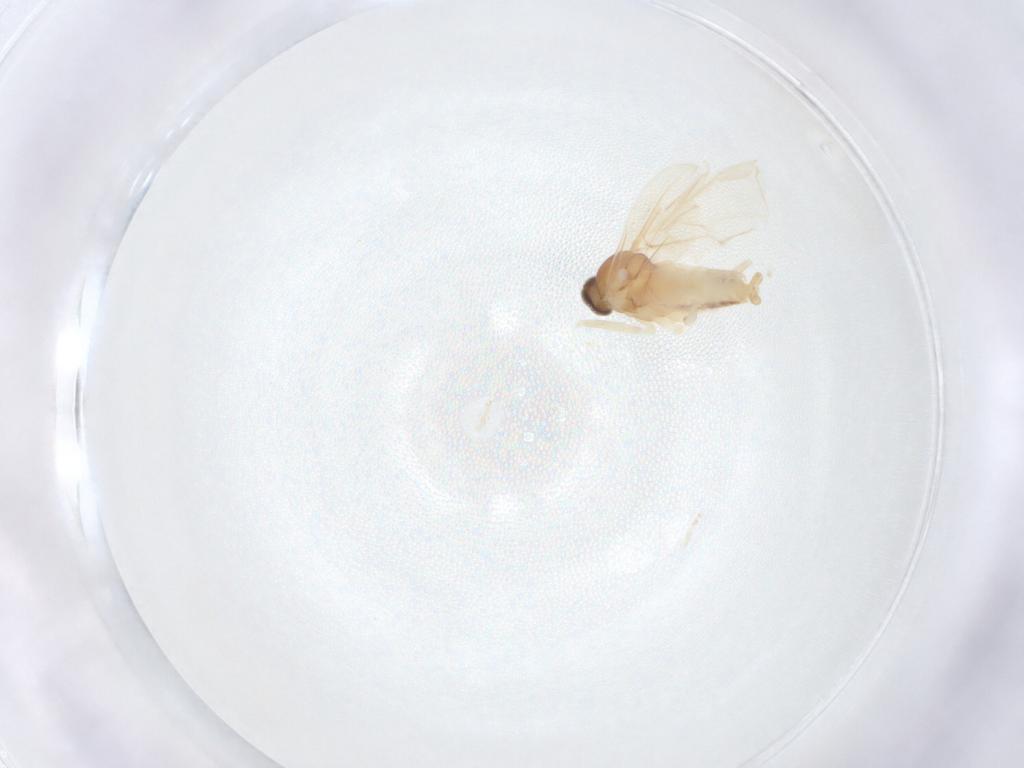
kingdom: Animalia
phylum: Arthropoda
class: Insecta
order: Diptera
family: Cecidomyiidae
